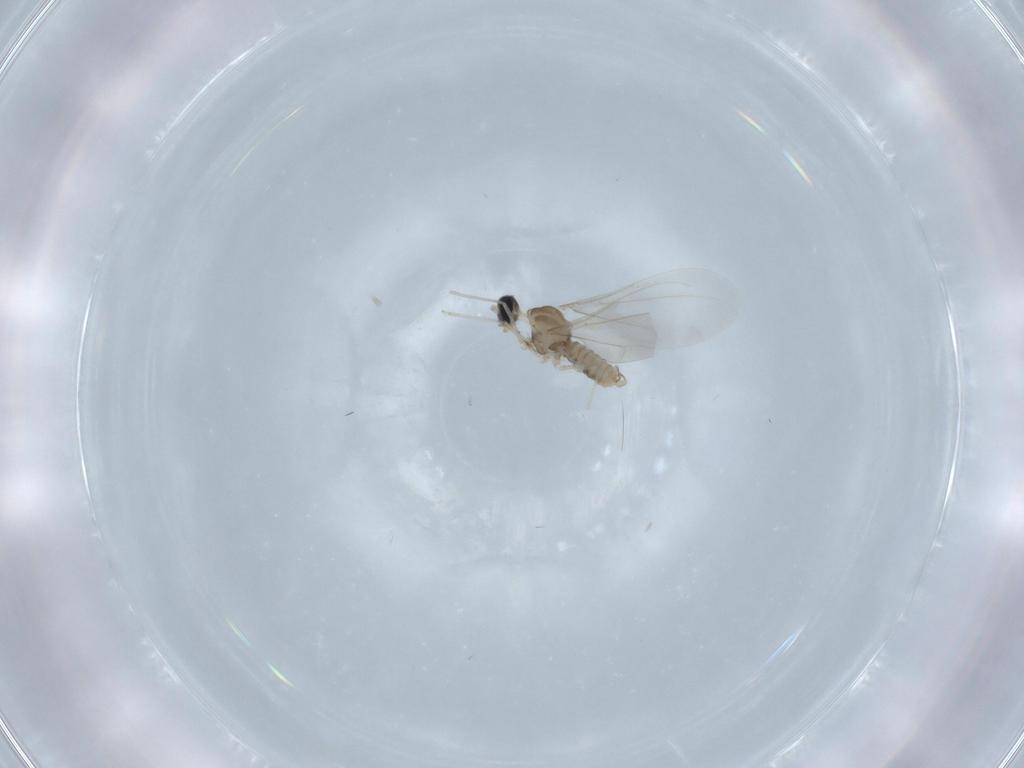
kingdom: Animalia
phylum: Arthropoda
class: Insecta
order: Diptera
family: Cecidomyiidae
